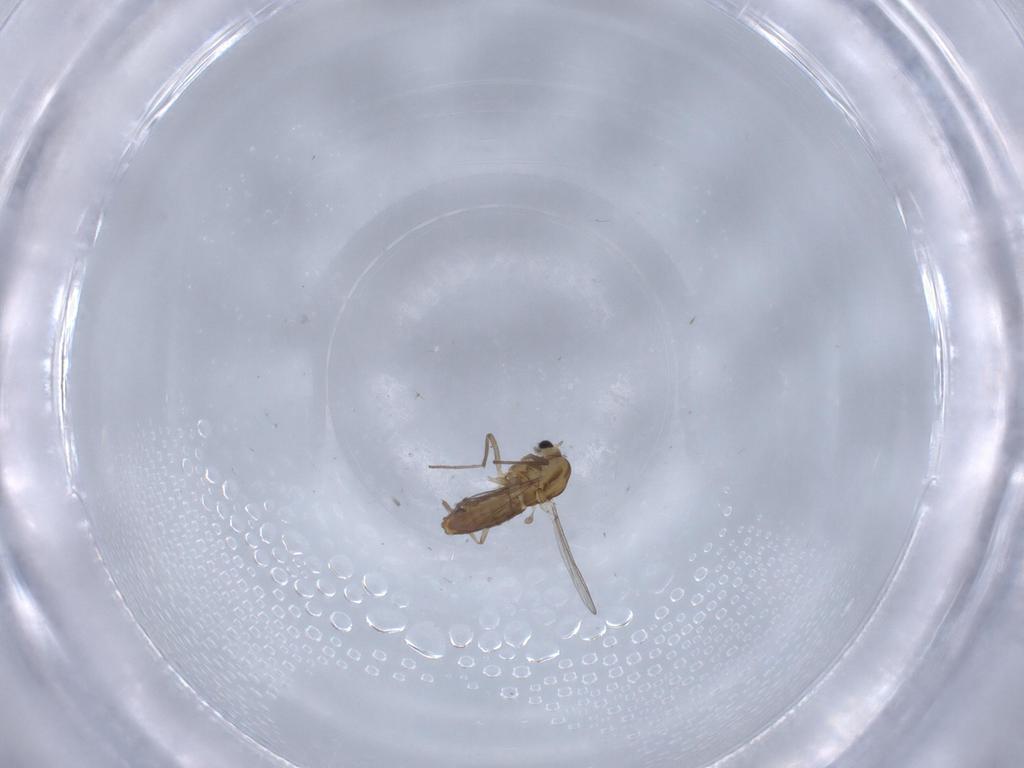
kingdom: Animalia
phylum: Arthropoda
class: Insecta
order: Diptera
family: Chironomidae
